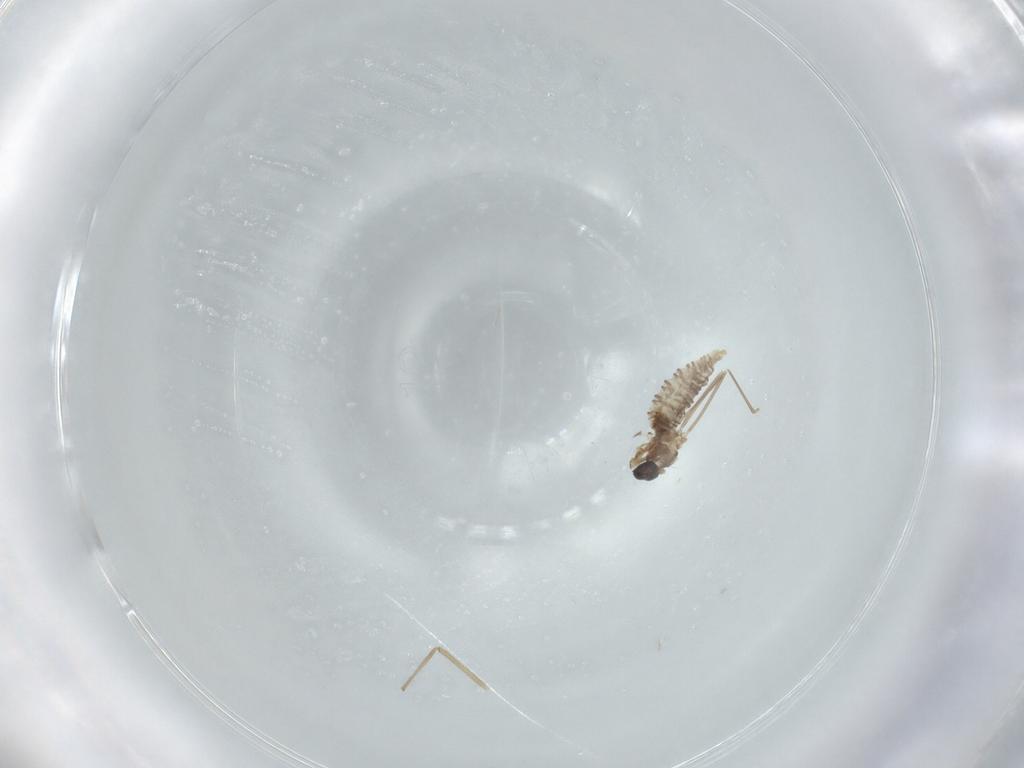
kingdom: Animalia
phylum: Arthropoda
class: Insecta
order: Diptera
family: Cecidomyiidae
